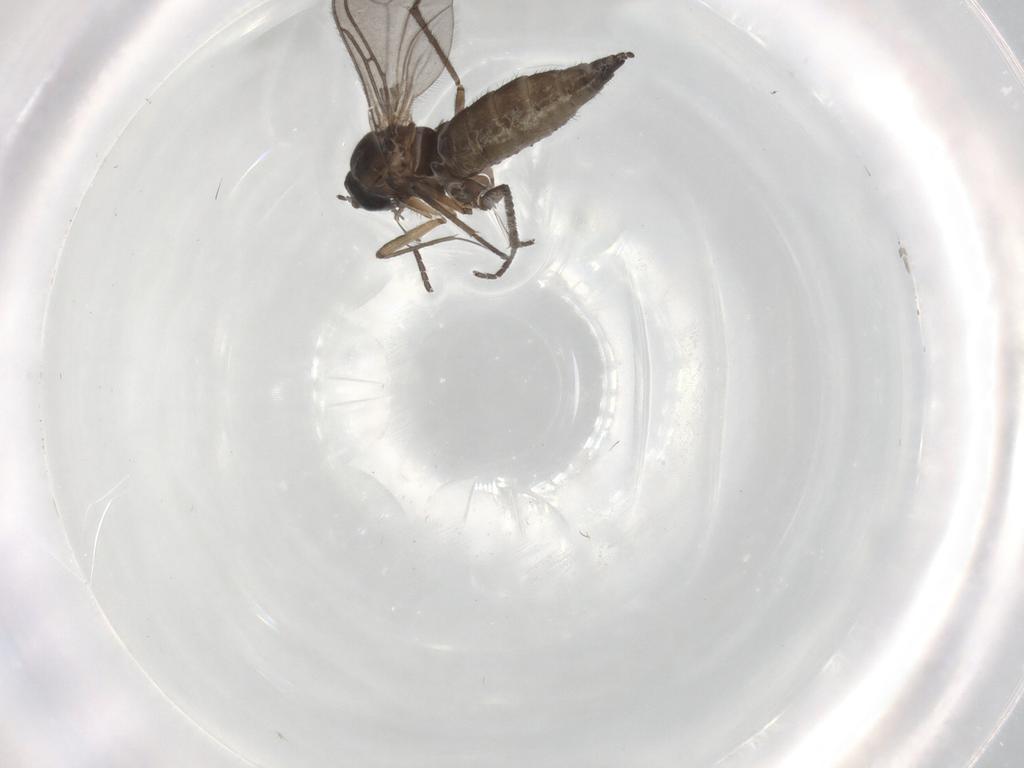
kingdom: Animalia
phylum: Arthropoda
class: Insecta
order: Diptera
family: Sciaridae
